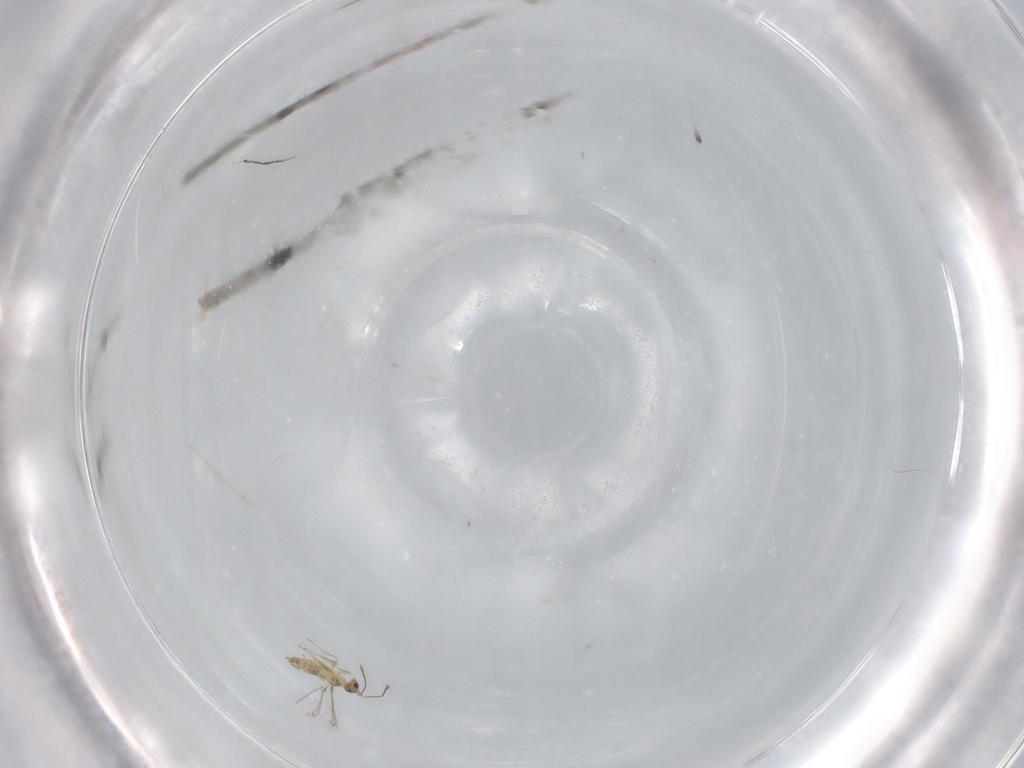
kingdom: Animalia
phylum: Arthropoda
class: Insecta
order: Hymenoptera
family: Mymaridae
